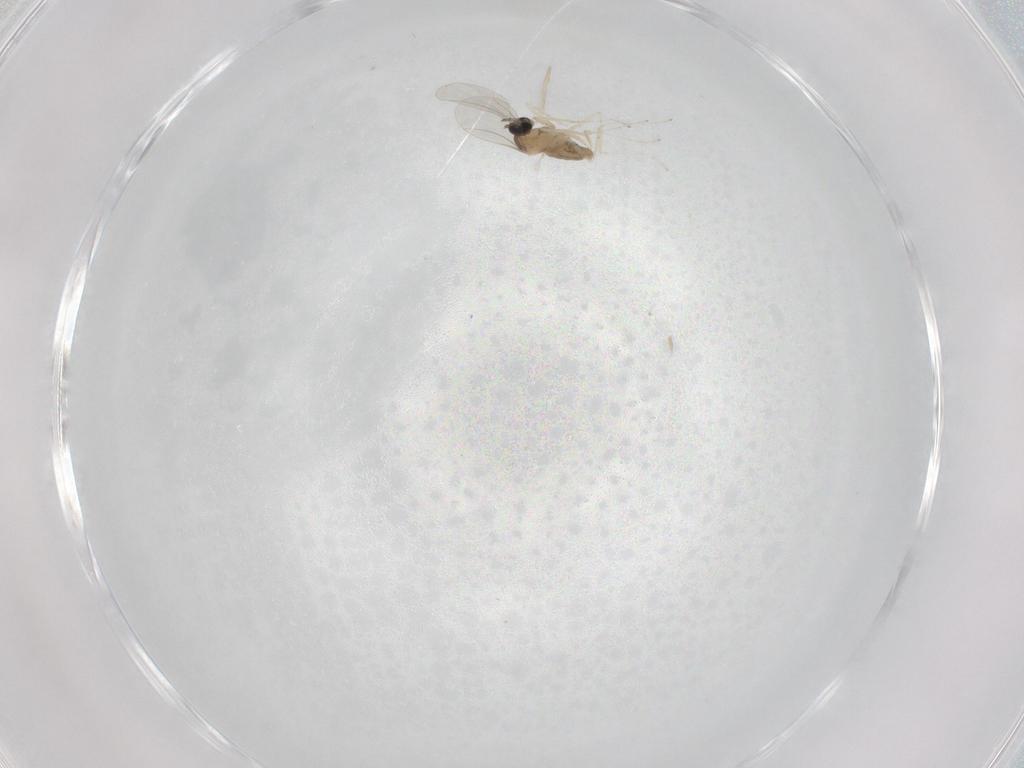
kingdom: Animalia
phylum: Arthropoda
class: Insecta
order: Diptera
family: Cecidomyiidae
